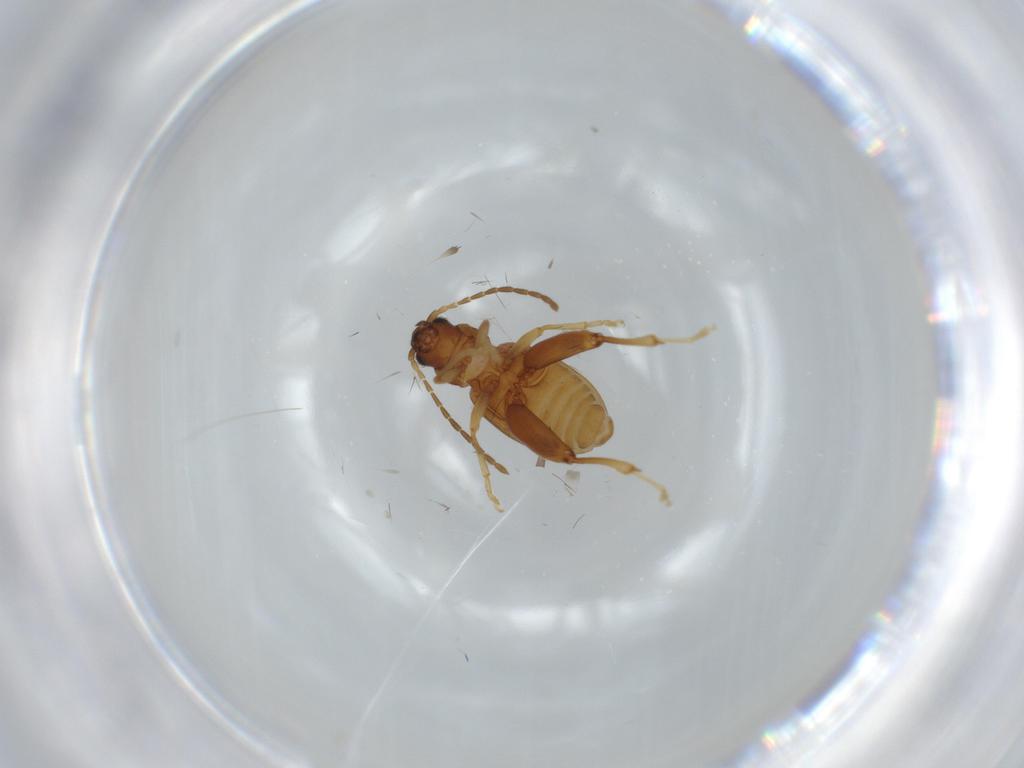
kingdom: Animalia
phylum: Arthropoda
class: Insecta
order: Coleoptera
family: Chrysomelidae
